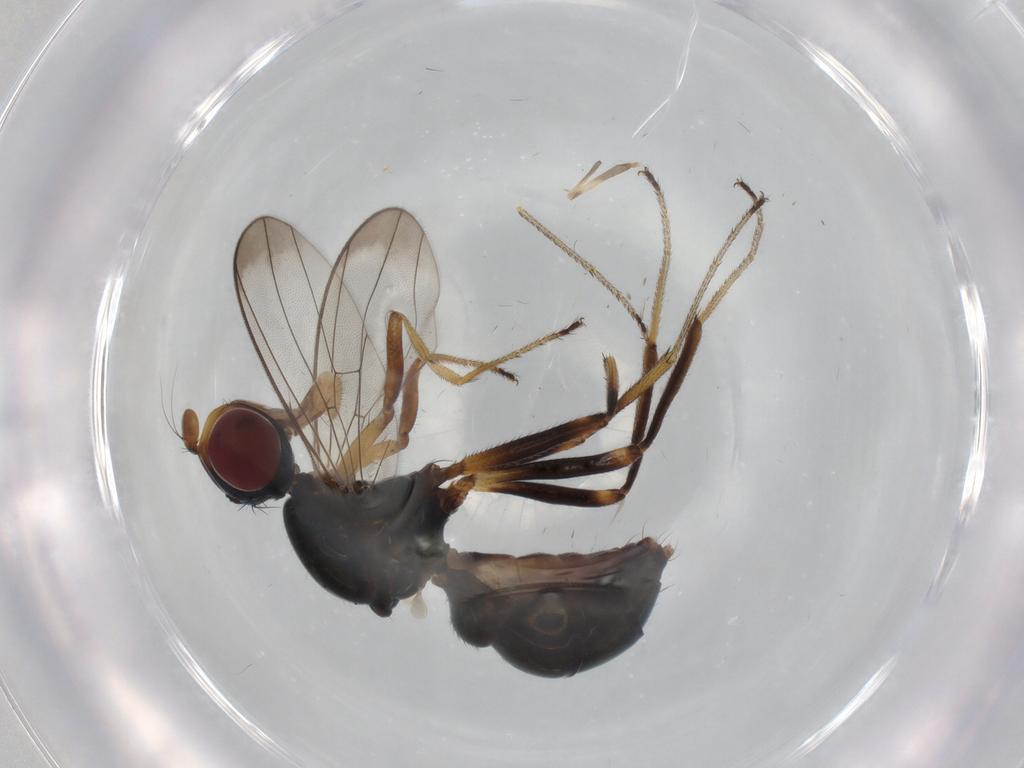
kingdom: Animalia
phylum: Arthropoda
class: Insecta
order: Diptera
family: Sepsidae
